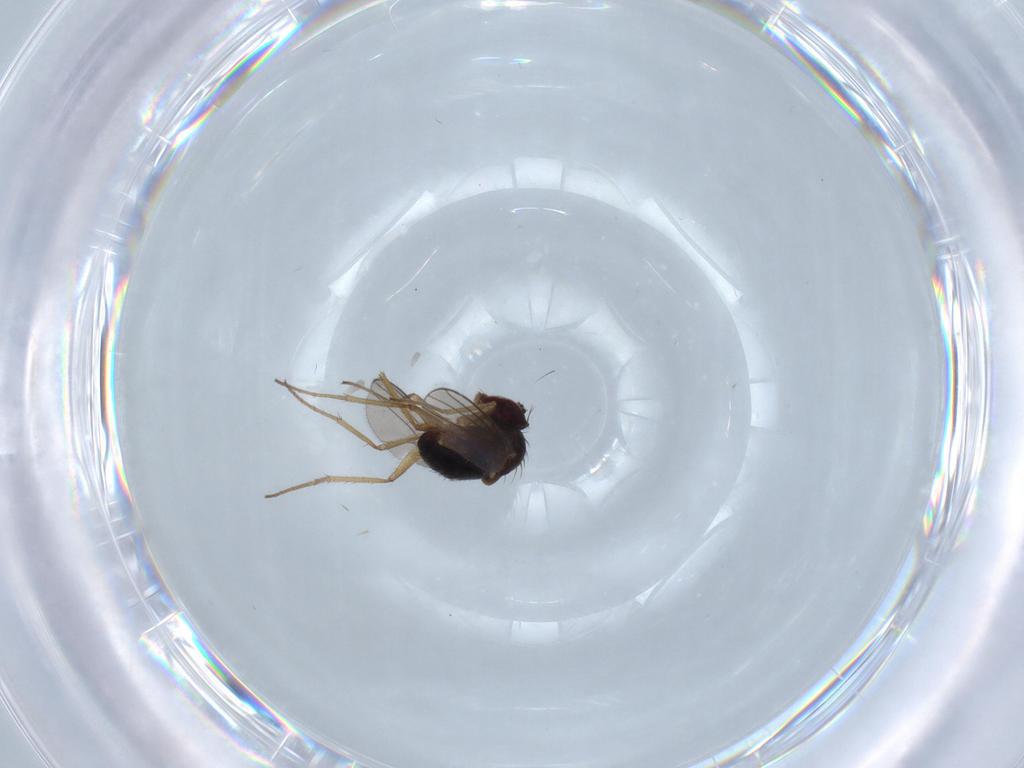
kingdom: Animalia
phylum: Arthropoda
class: Insecta
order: Diptera
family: Dolichopodidae
